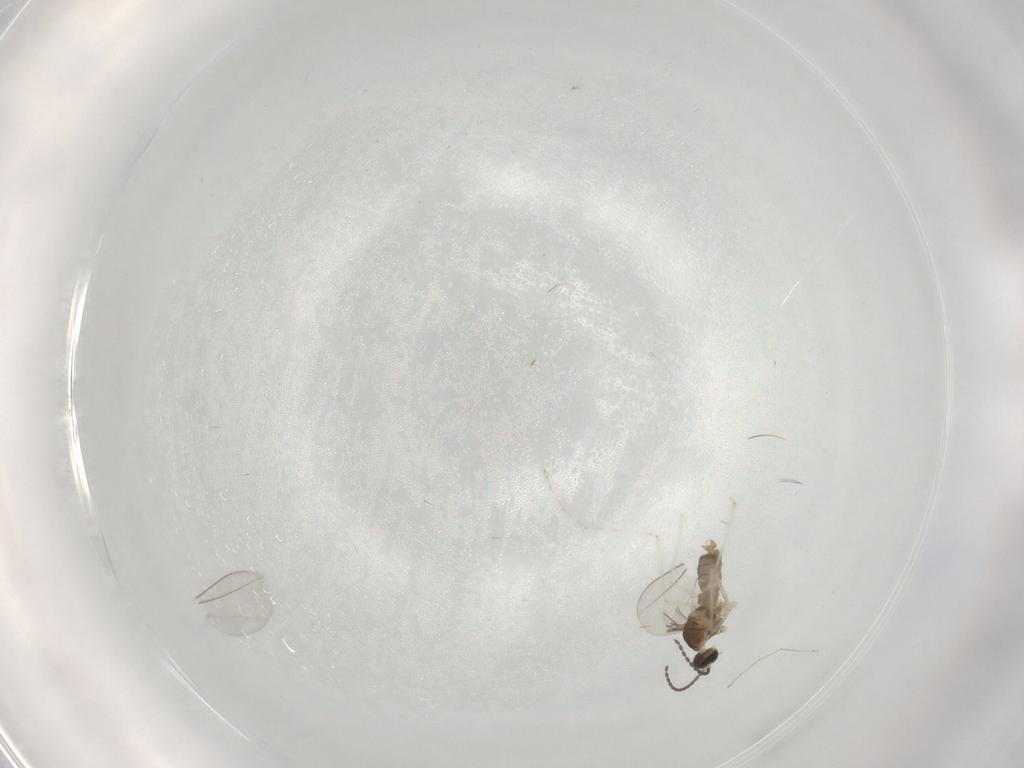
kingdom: Animalia
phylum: Arthropoda
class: Insecta
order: Diptera
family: Cecidomyiidae
